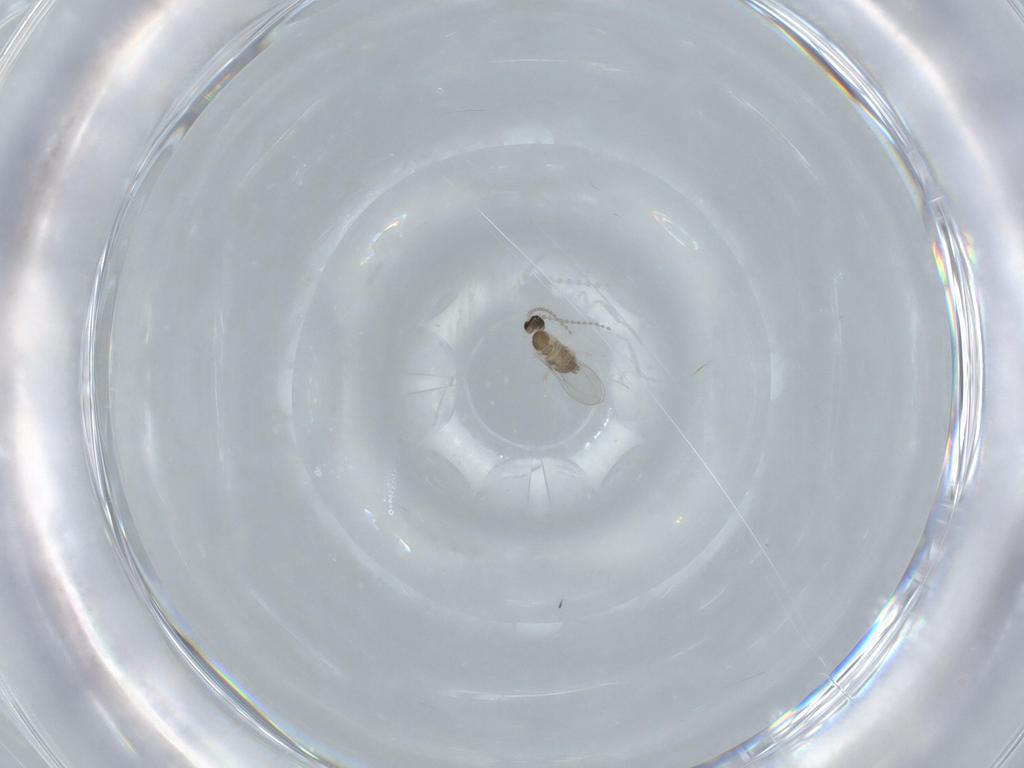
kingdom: Animalia
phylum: Arthropoda
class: Insecta
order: Diptera
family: Cecidomyiidae
